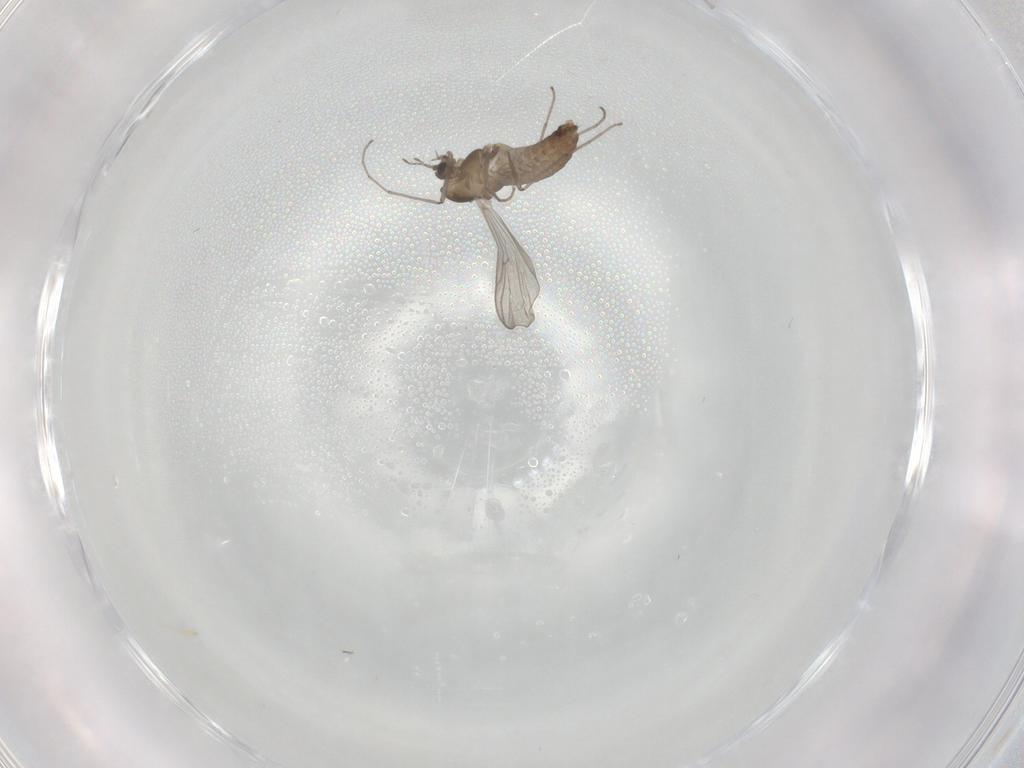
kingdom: Animalia
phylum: Arthropoda
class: Insecta
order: Diptera
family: Chironomidae
